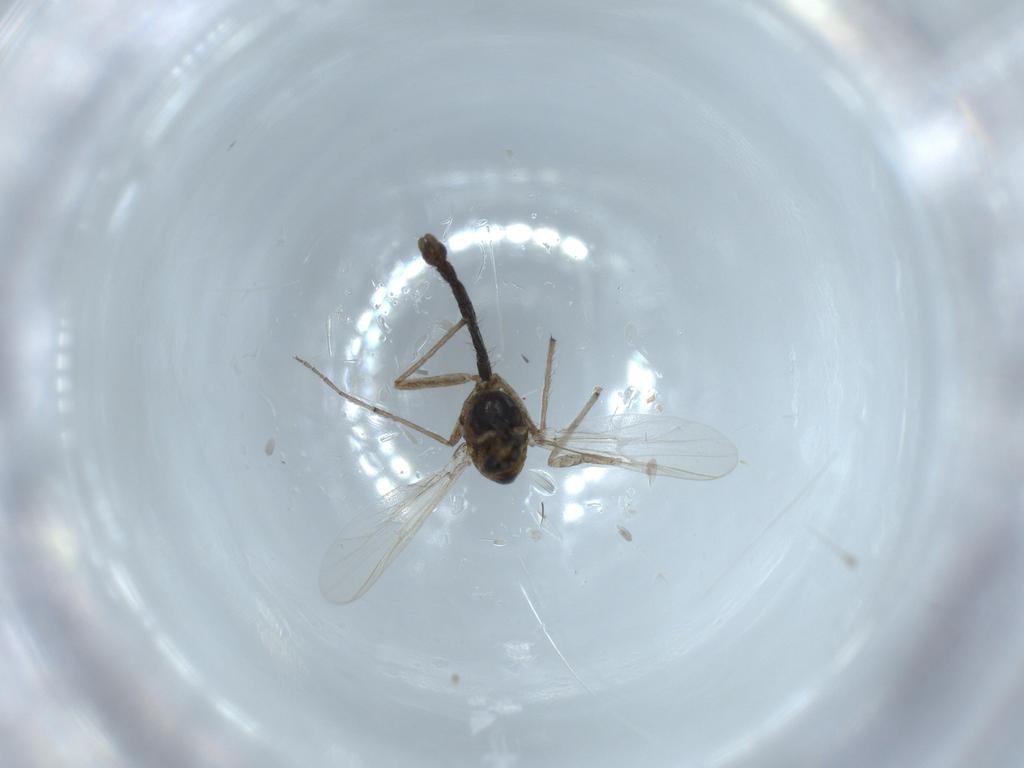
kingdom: Animalia
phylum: Arthropoda
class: Insecta
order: Diptera
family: Chironomidae
